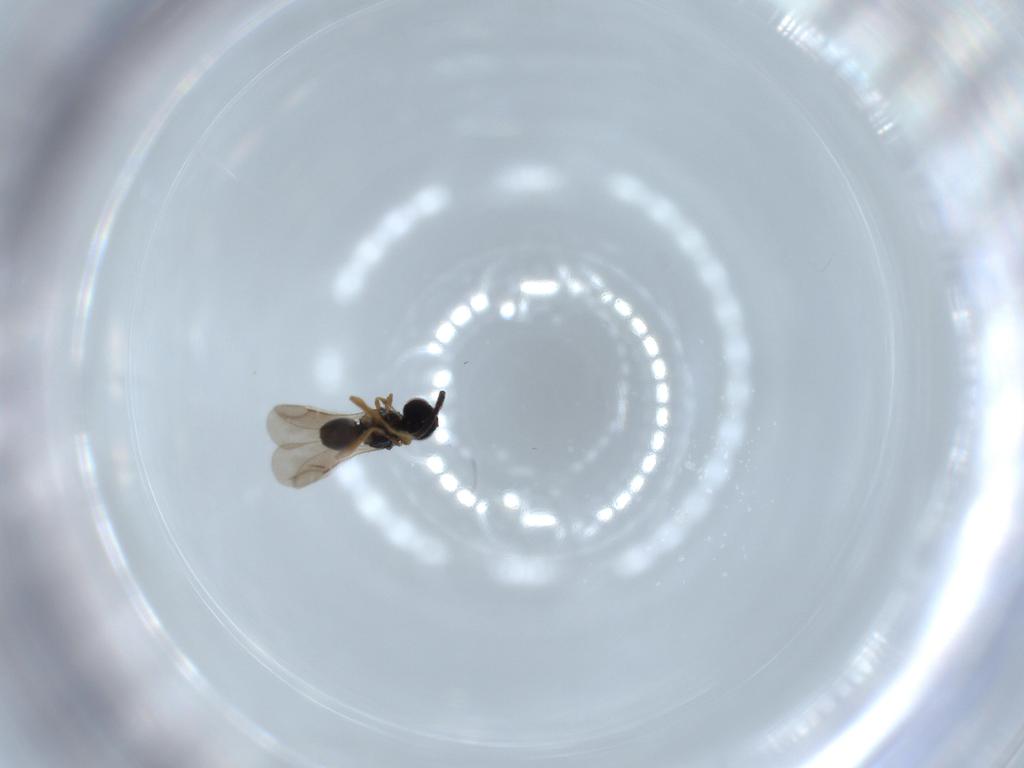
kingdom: Animalia
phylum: Arthropoda
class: Insecta
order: Hymenoptera
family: Ceraphronidae
